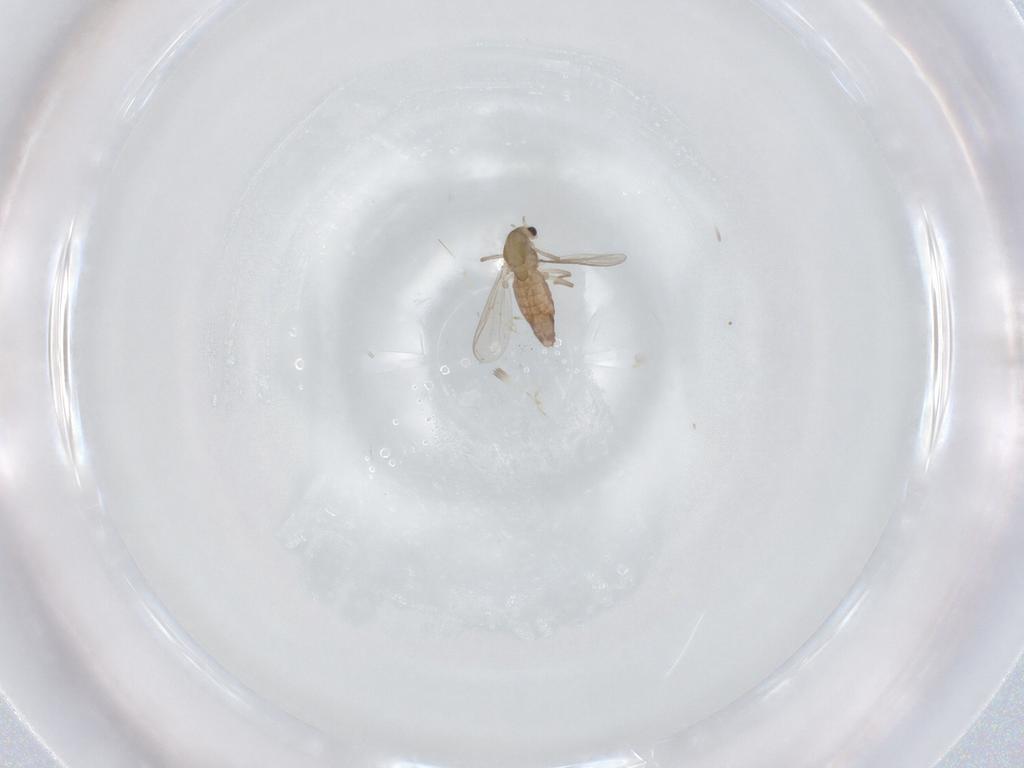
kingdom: Animalia
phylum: Arthropoda
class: Insecta
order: Diptera
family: Chironomidae
